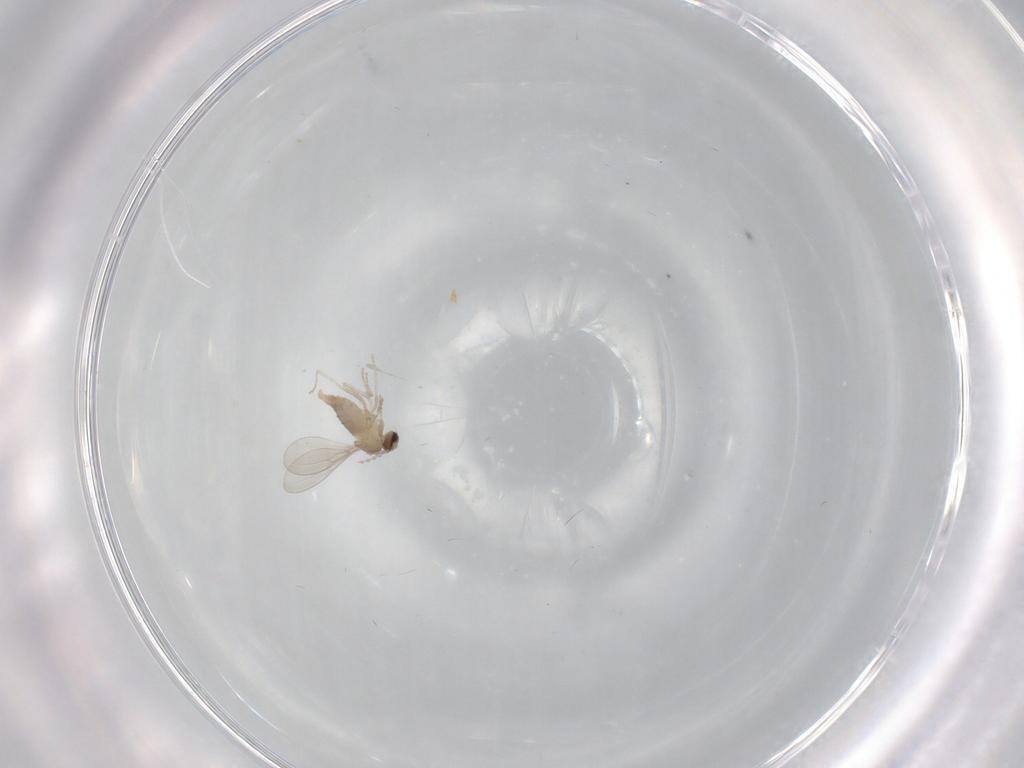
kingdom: Animalia
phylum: Arthropoda
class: Insecta
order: Diptera
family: Cecidomyiidae
